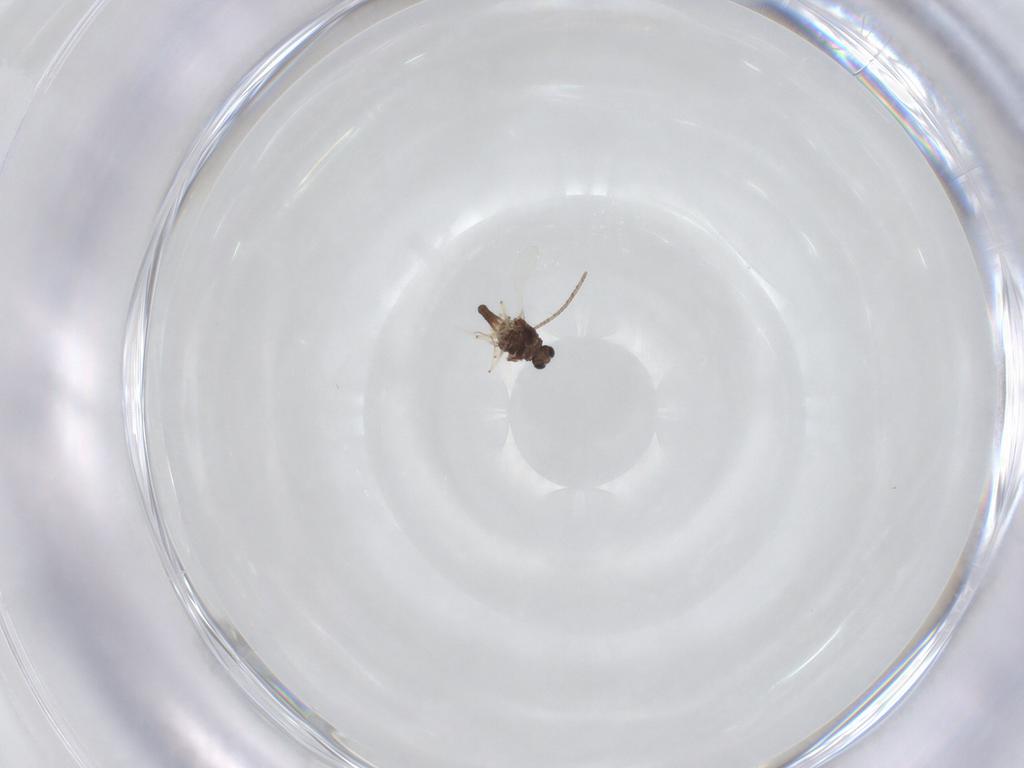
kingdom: Animalia
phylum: Arthropoda
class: Insecta
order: Diptera
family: Chironomidae
